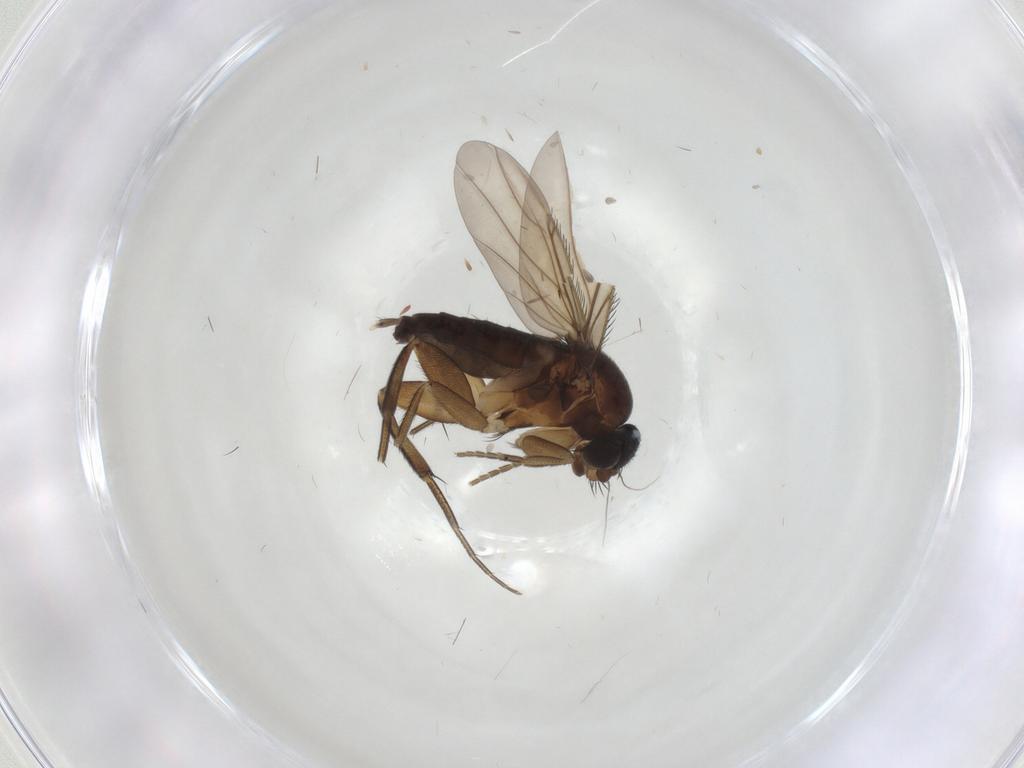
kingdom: Animalia
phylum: Arthropoda
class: Insecta
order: Diptera
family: Phoridae
